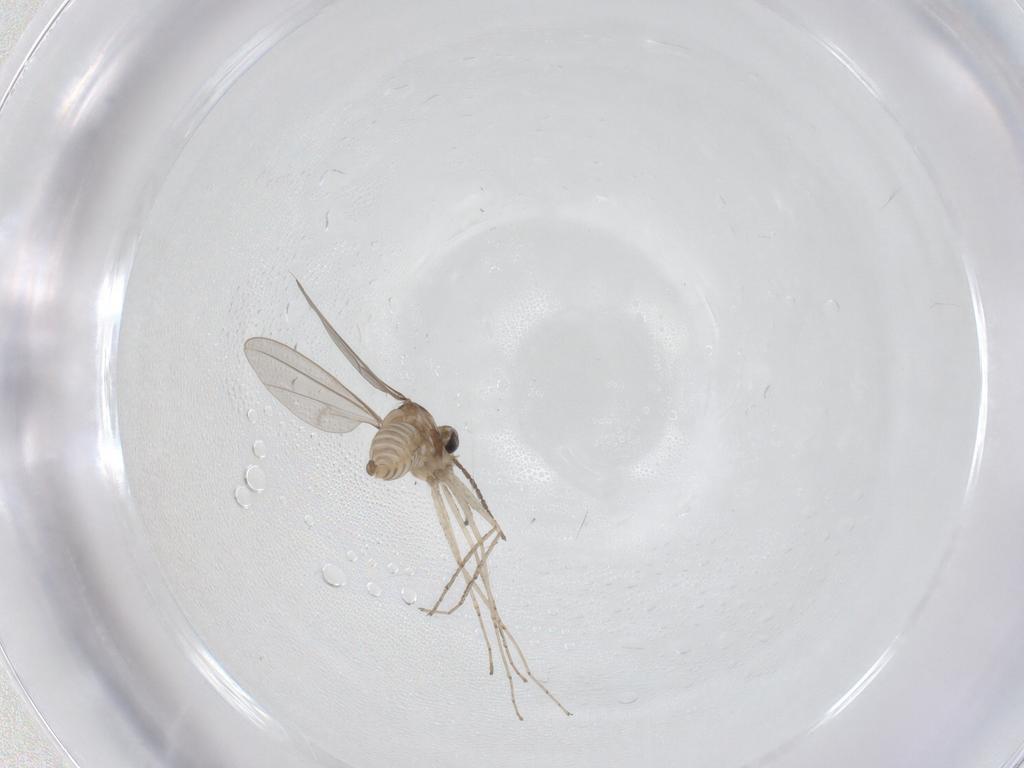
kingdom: Animalia
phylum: Arthropoda
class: Insecta
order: Diptera
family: Cecidomyiidae
